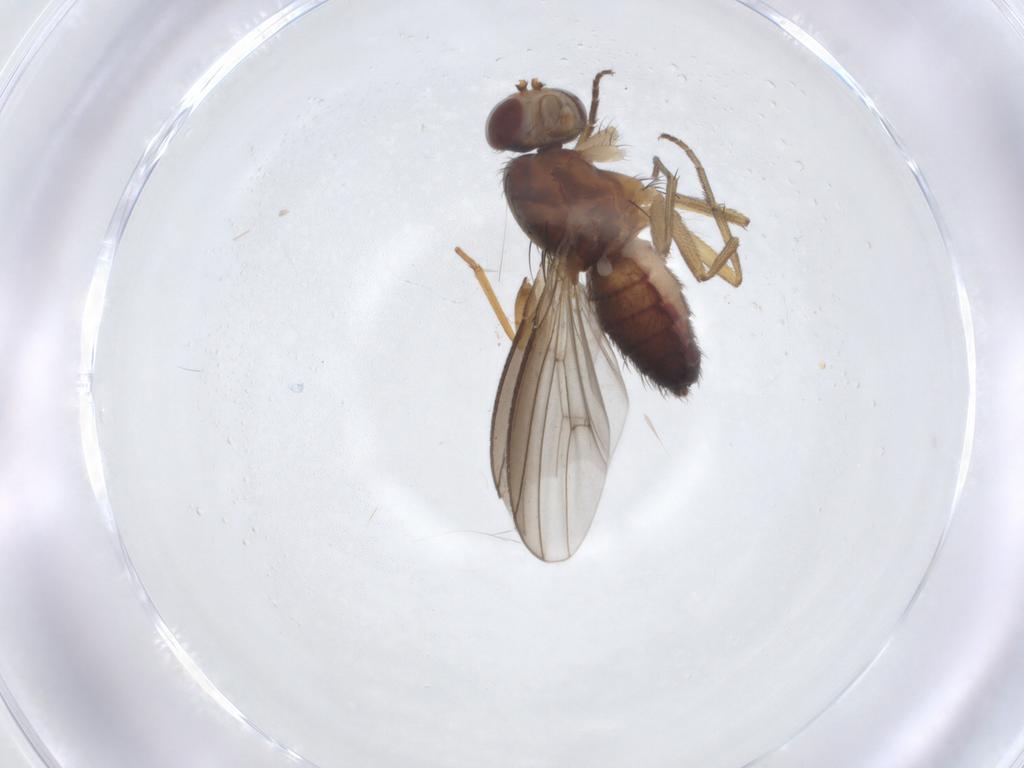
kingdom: Animalia
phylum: Arthropoda
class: Insecta
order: Diptera
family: Heleomyzidae
